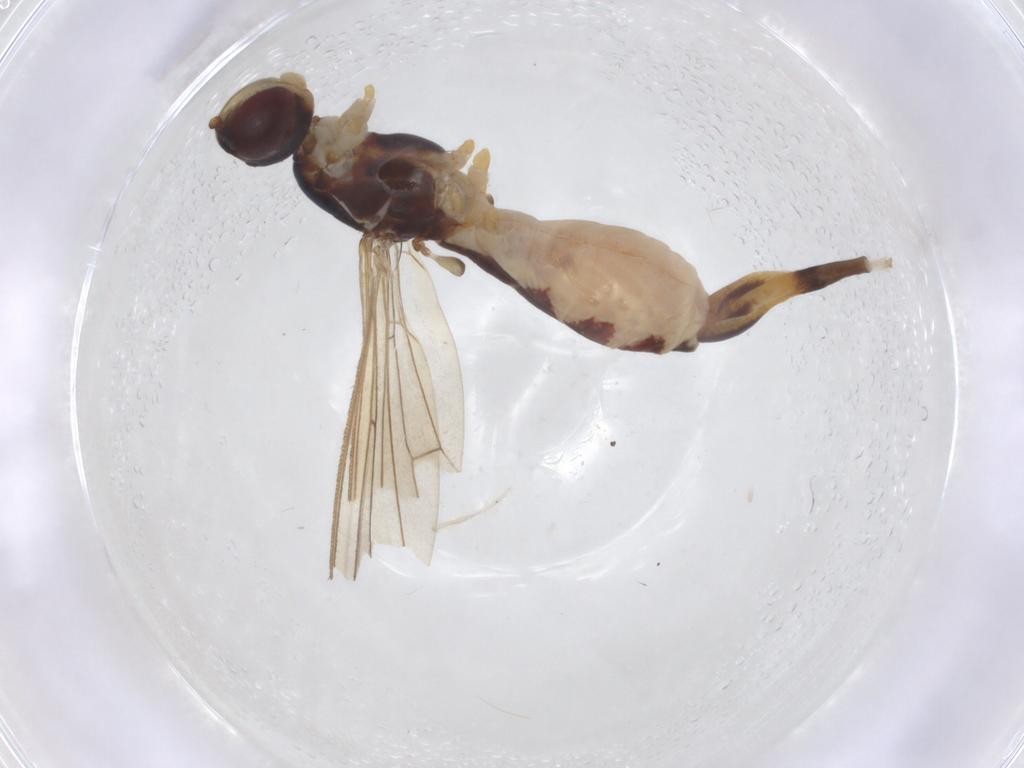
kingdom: Animalia
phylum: Arthropoda
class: Insecta
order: Diptera
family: Micropezidae
